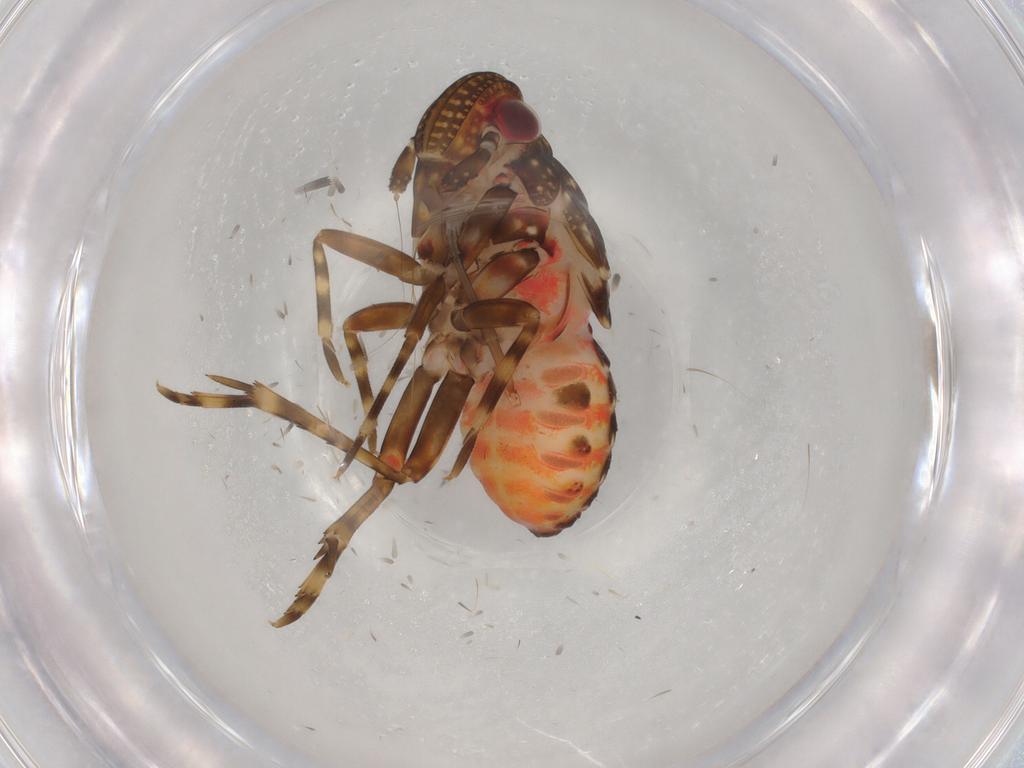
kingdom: Animalia
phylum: Arthropoda
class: Insecta
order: Hemiptera
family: Delphacidae
